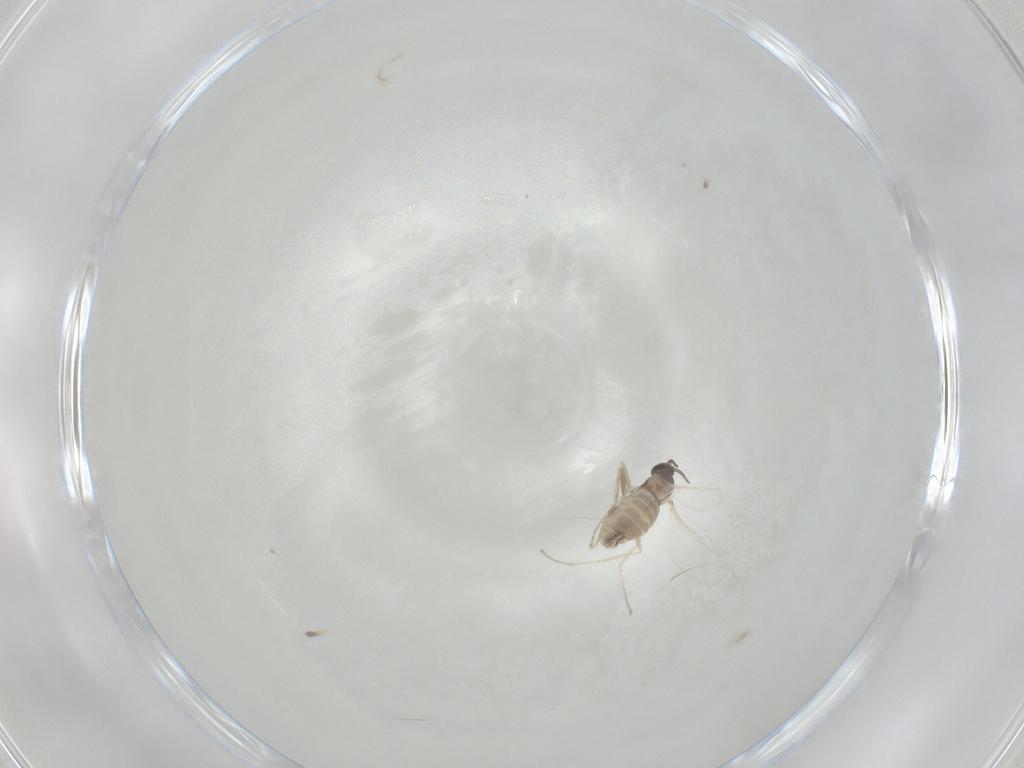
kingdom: Animalia
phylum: Arthropoda
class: Insecta
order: Diptera
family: Cecidomyiidae
